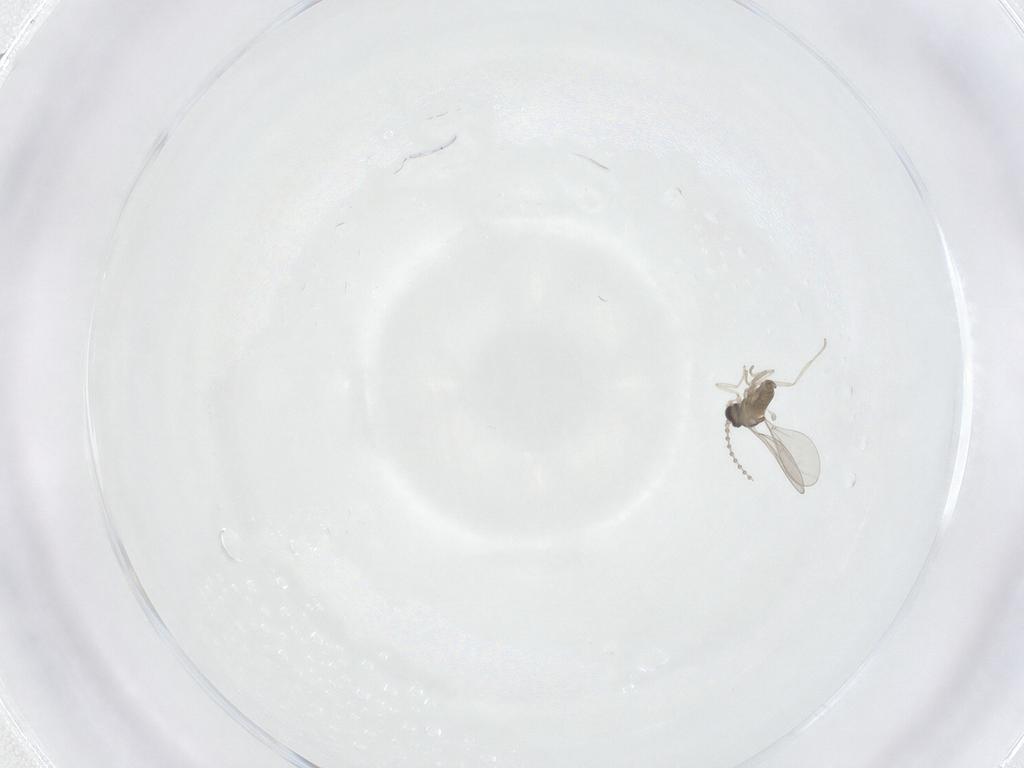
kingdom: Animalia
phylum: Arthropoda
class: Insecta
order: Diptera
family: Cecidomyiidae
